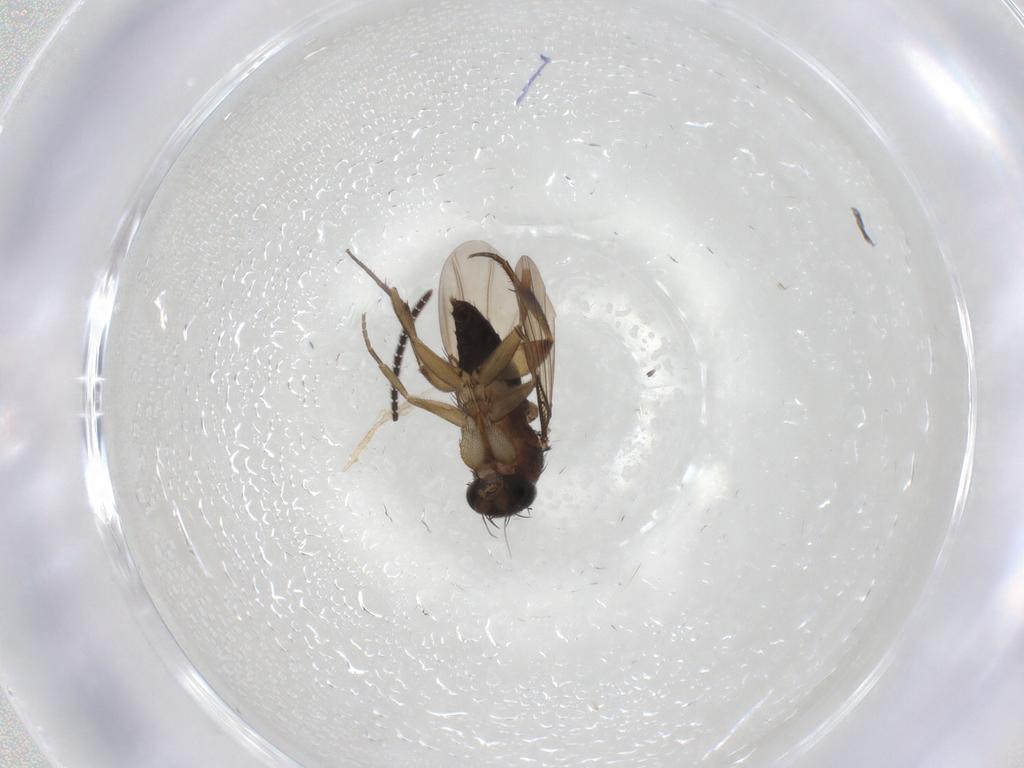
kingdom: Animalia
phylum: Arthropoda
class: Insecta
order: Diptera
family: Phoridae
